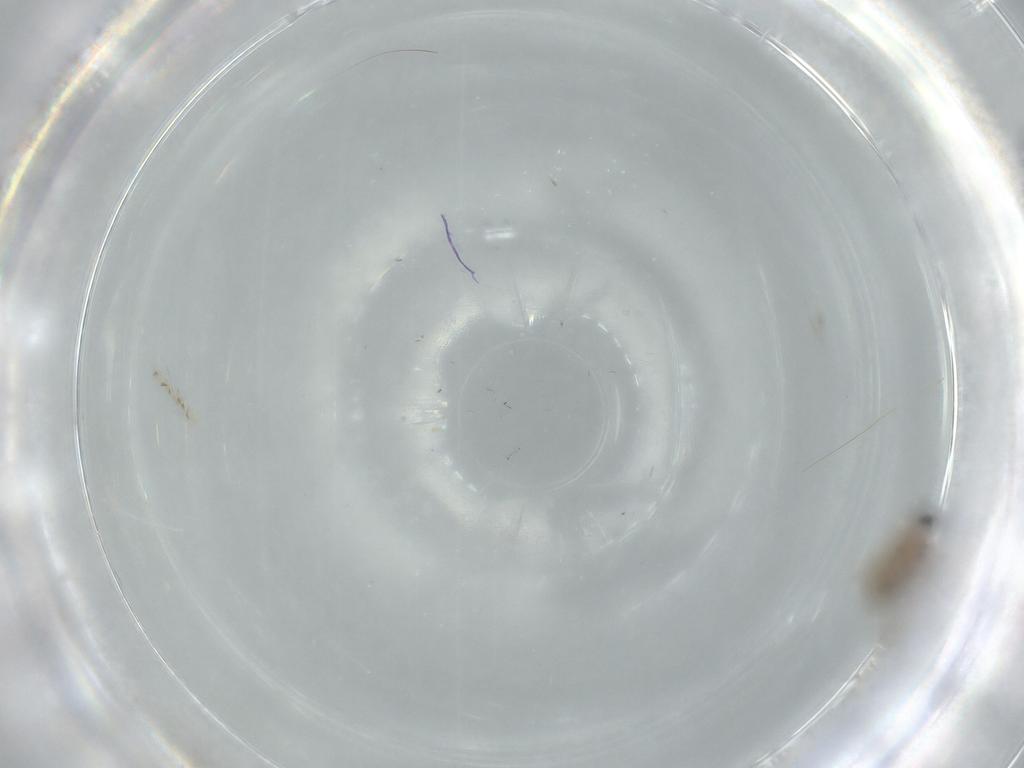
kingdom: Animalia
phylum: Arthropoda
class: Insecta
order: Diptera
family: Cecidomyiidae
